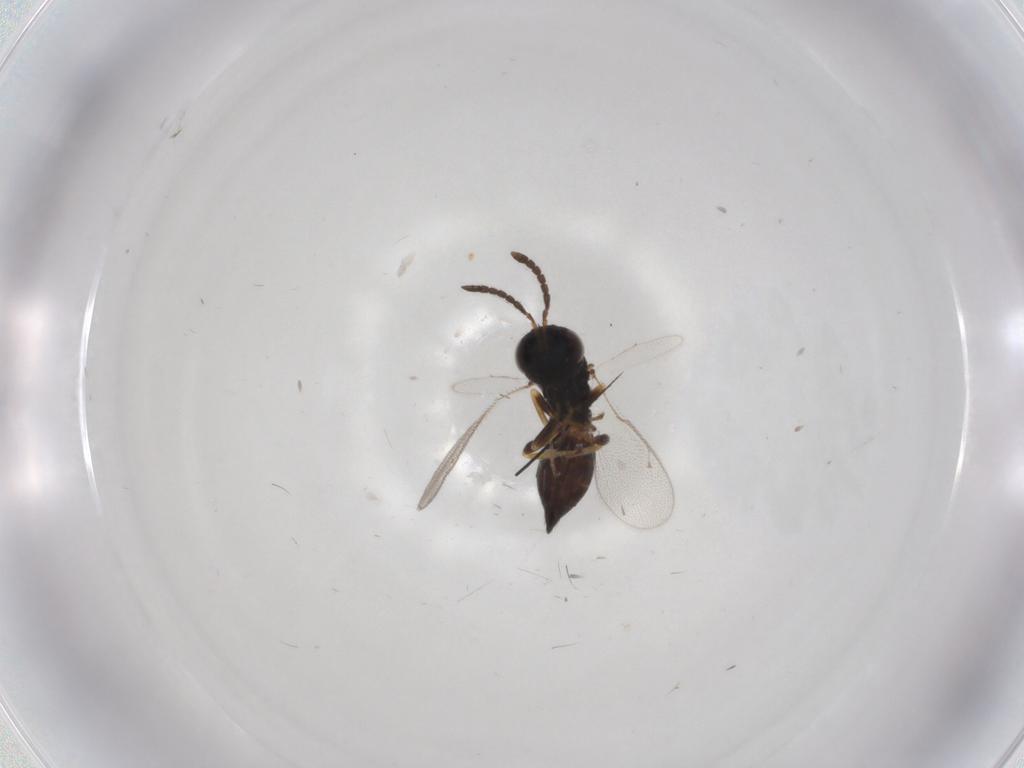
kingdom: Animalia
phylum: Arthropoda
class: Insecta
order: Hymenoptera
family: Pteromalidae
